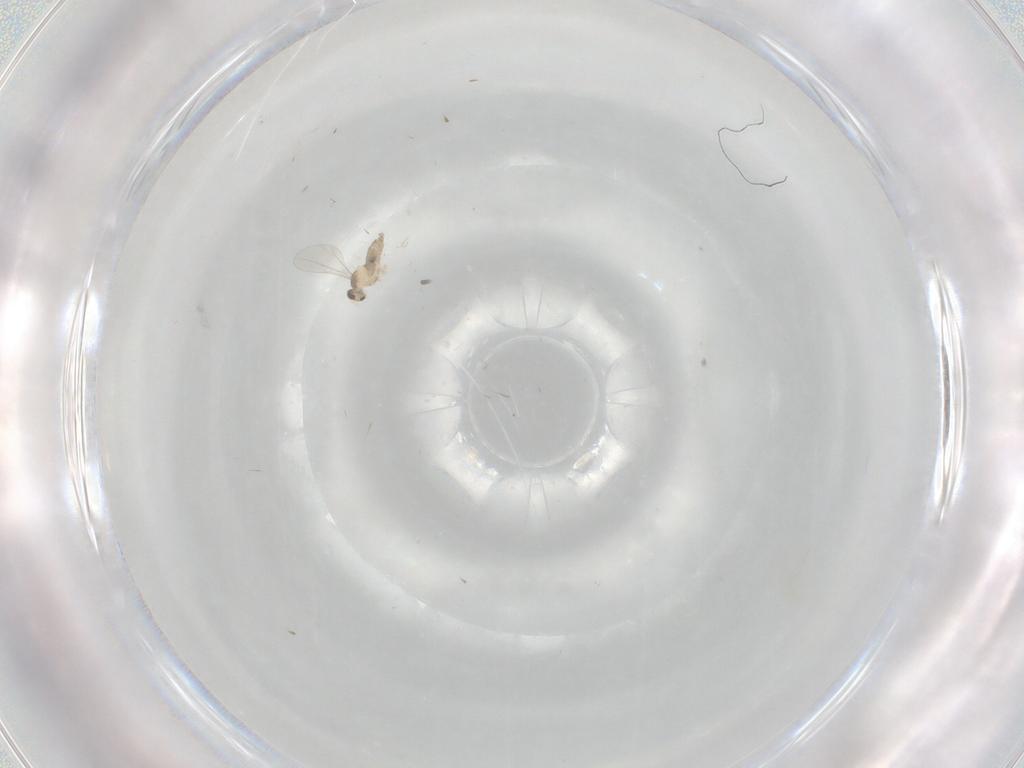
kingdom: Animalia
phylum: Arthropoda
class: Insecta
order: Diptera
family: Cecidomyiidae
